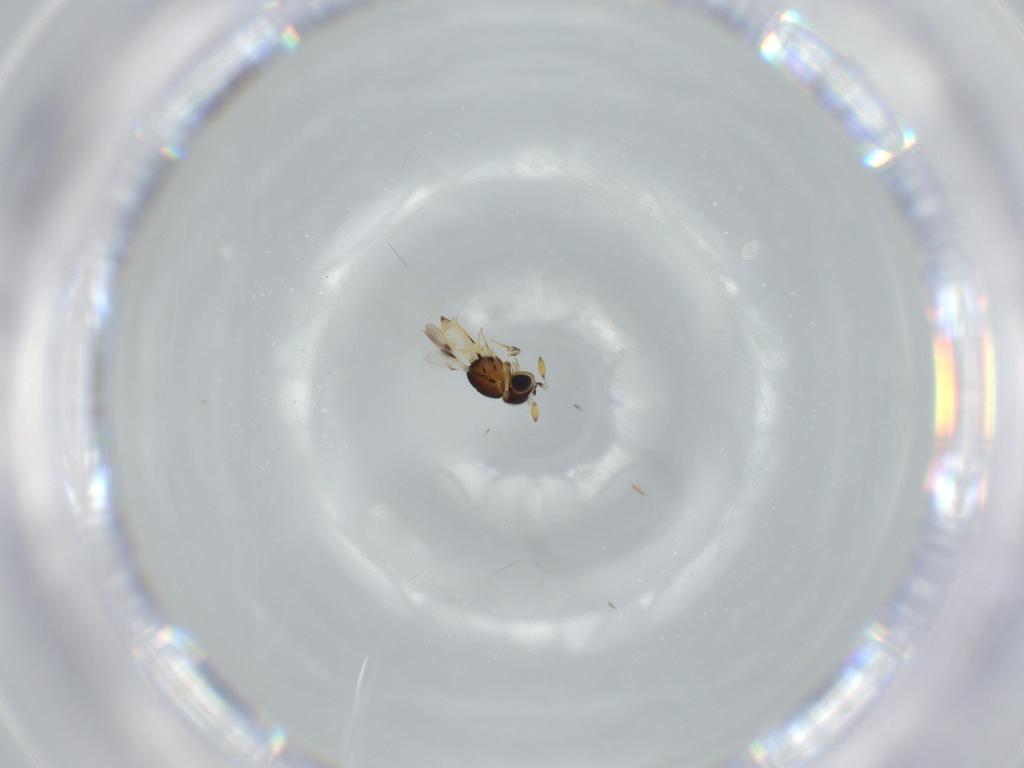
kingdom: Animalia
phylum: Arthropoda
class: Insecta
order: Hymenoptera
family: Scelionidae
